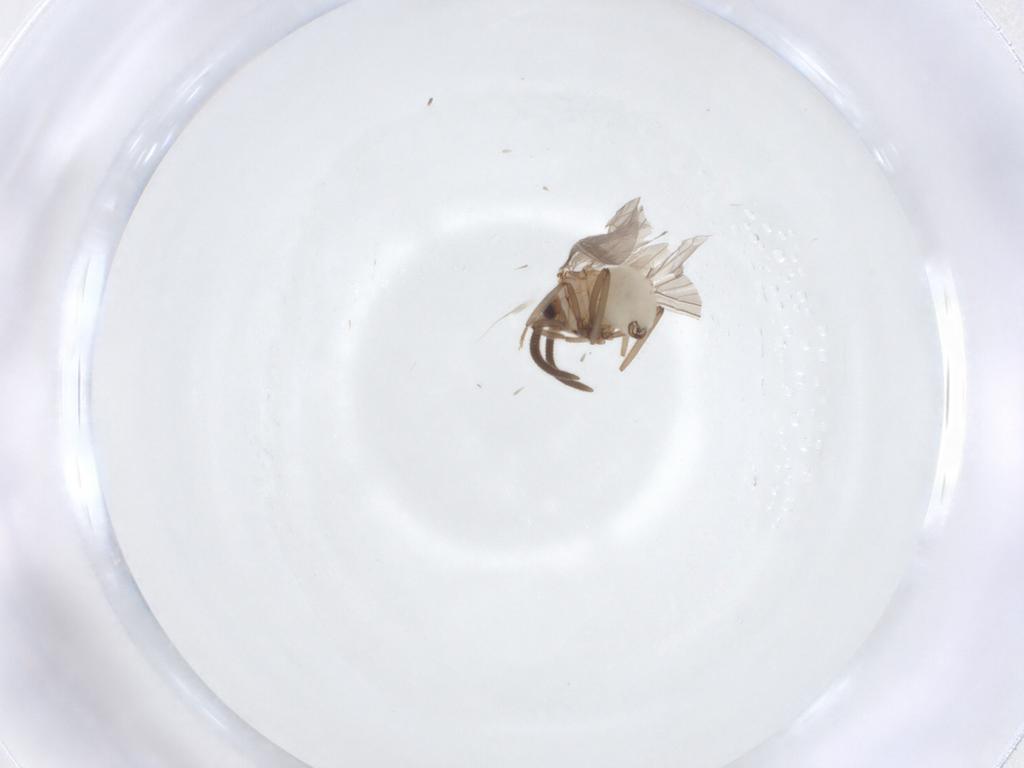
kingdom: Animalia
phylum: Arthropoda
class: Insecta
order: Neuroptera
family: Coniopterygidae
